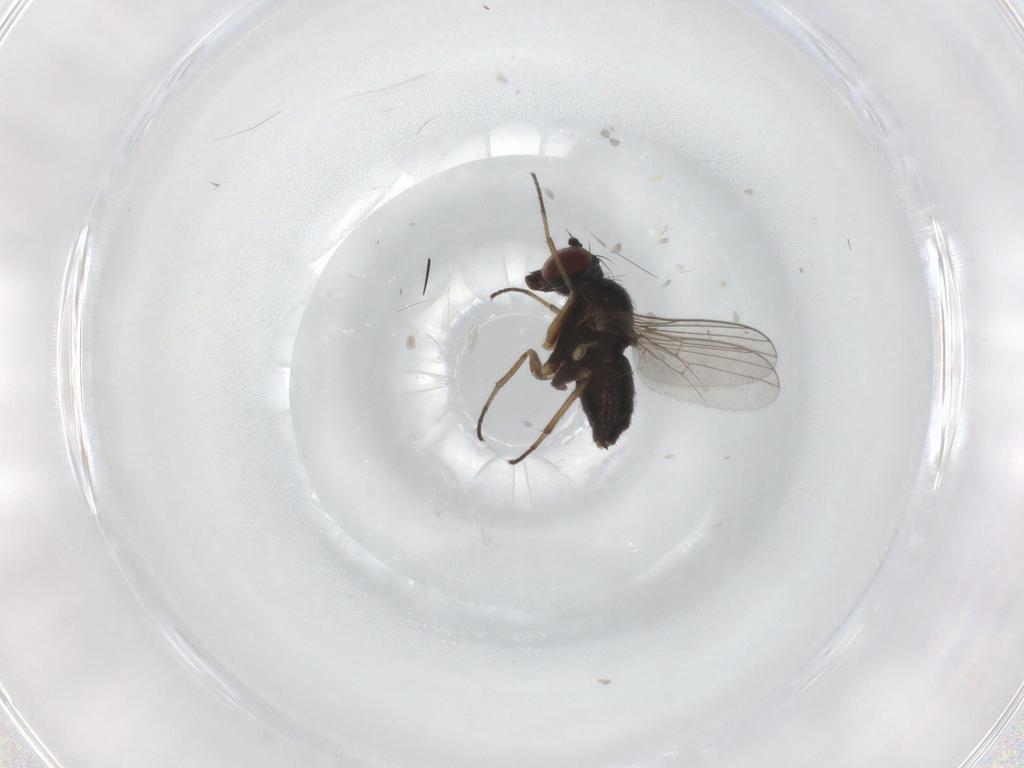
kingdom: Animalia
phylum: Arthropoda
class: Insecta
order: Diptera
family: Dolichopodidae
